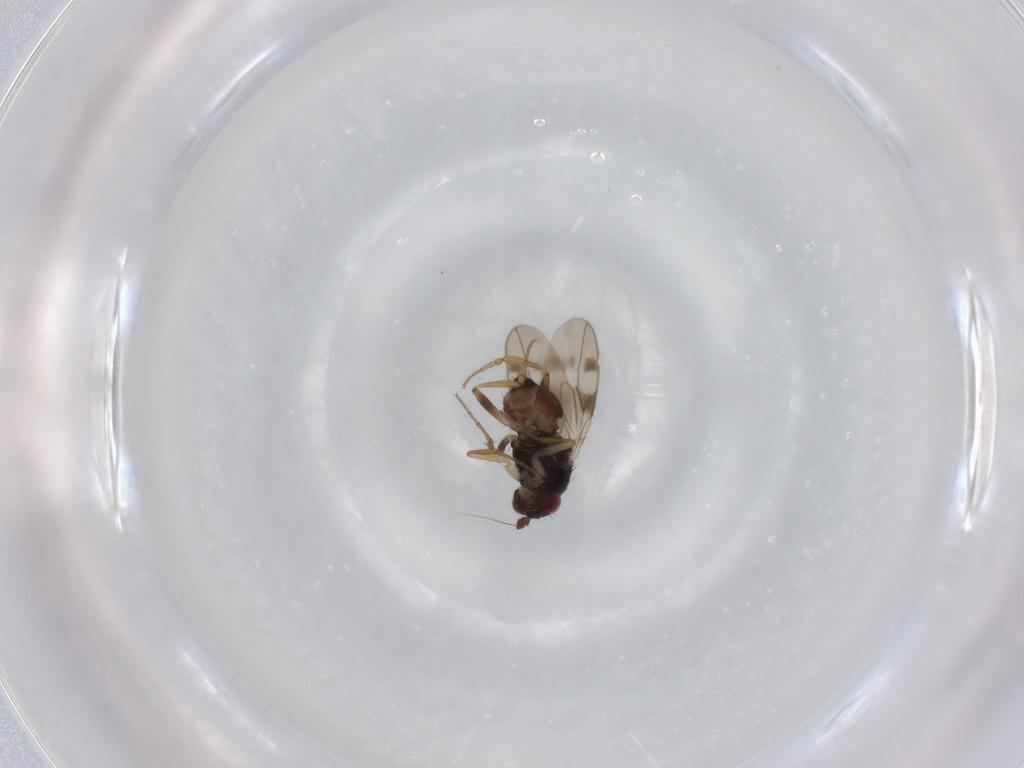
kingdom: Animalia
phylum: Arthropoda
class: Insecta
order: Diptera
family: Sphaeroceridae
